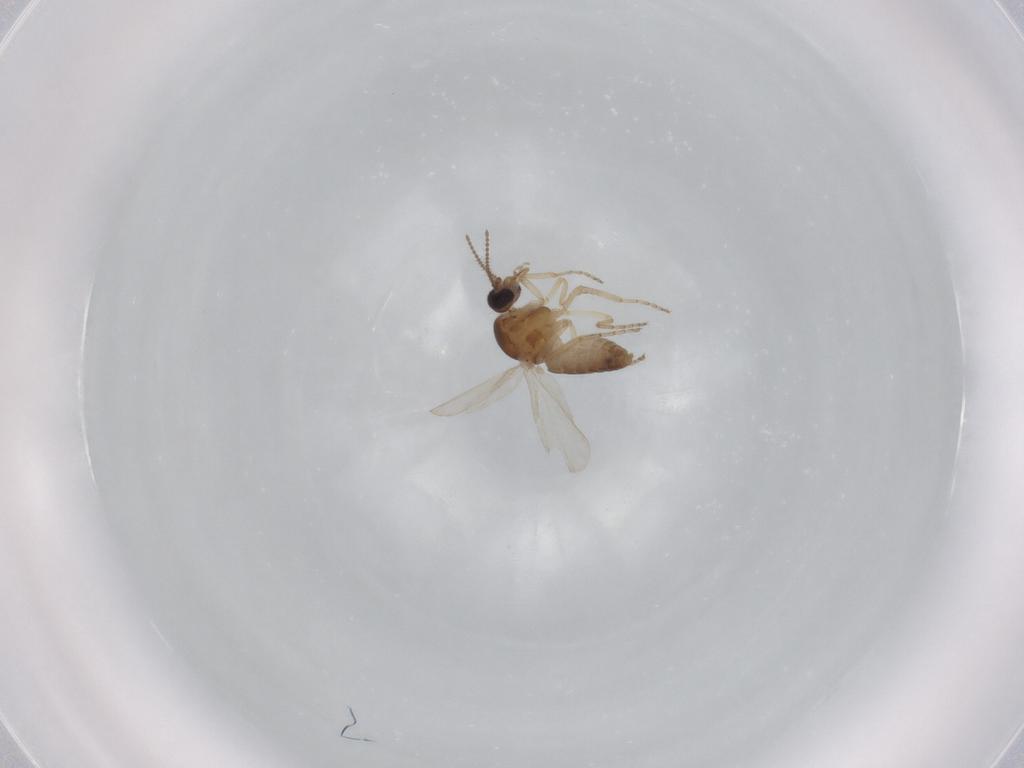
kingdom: Animalia
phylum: Arthropoda
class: Insecta
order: Diptera
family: Ceratopogonidae
